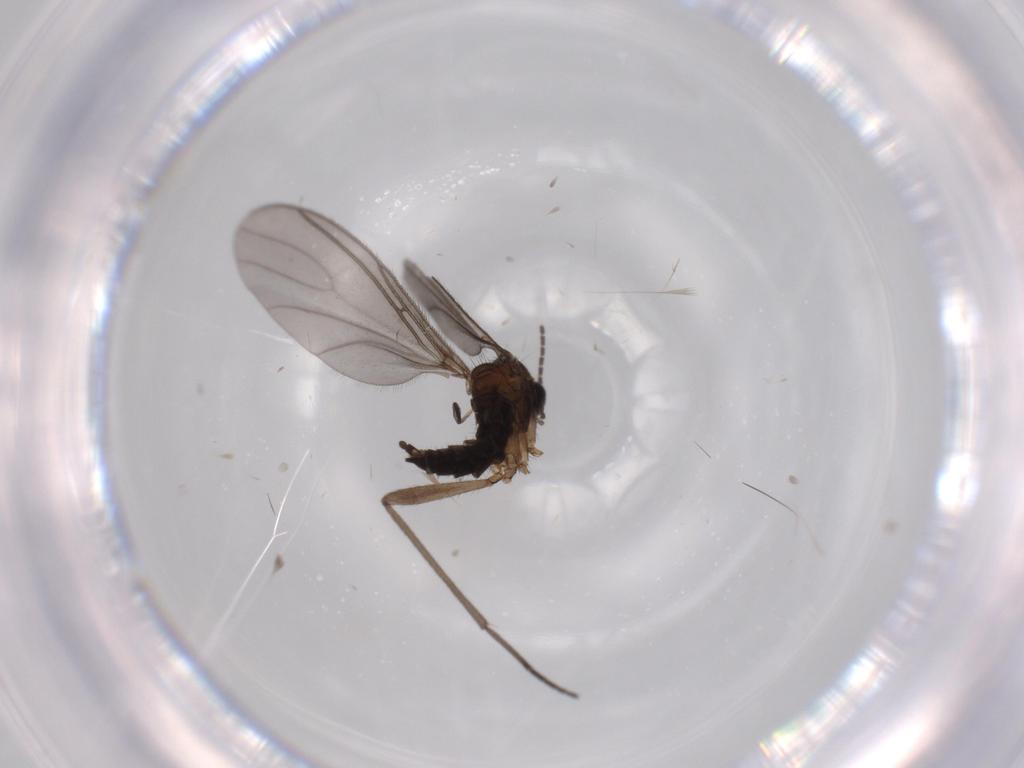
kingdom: Animalia
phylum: Arthropoda
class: Insecta
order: Diptera
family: Sciaridae
